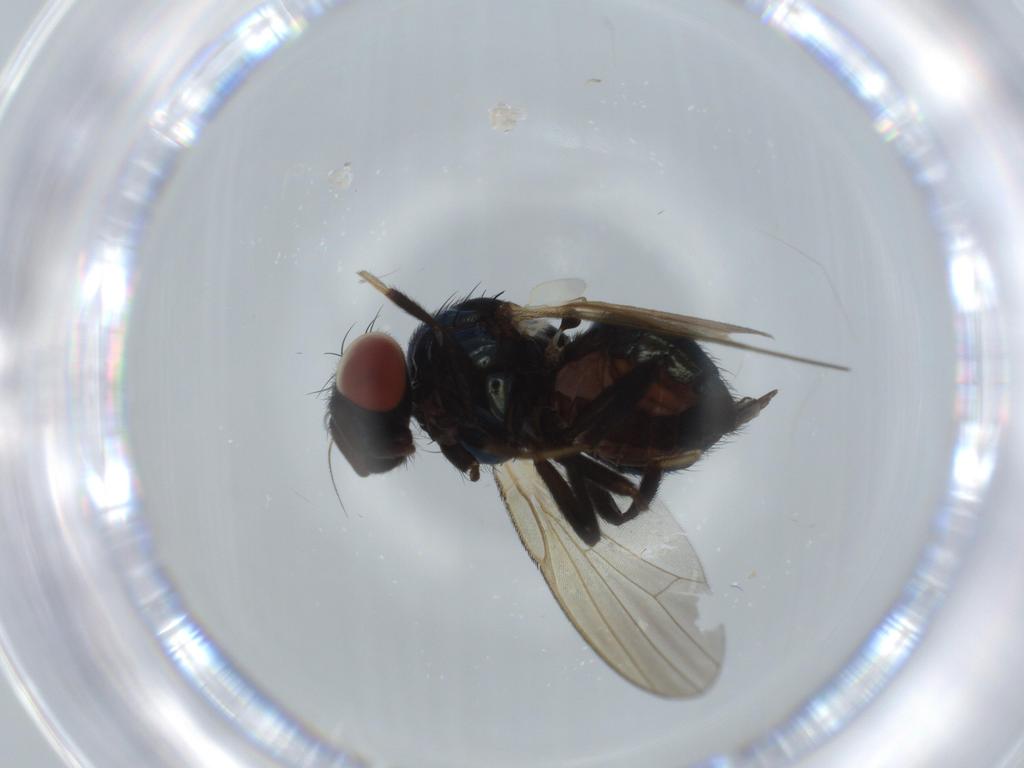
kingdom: Animalia
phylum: Arthropoda
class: Insecta
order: Diptera
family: Lonchaeidae
